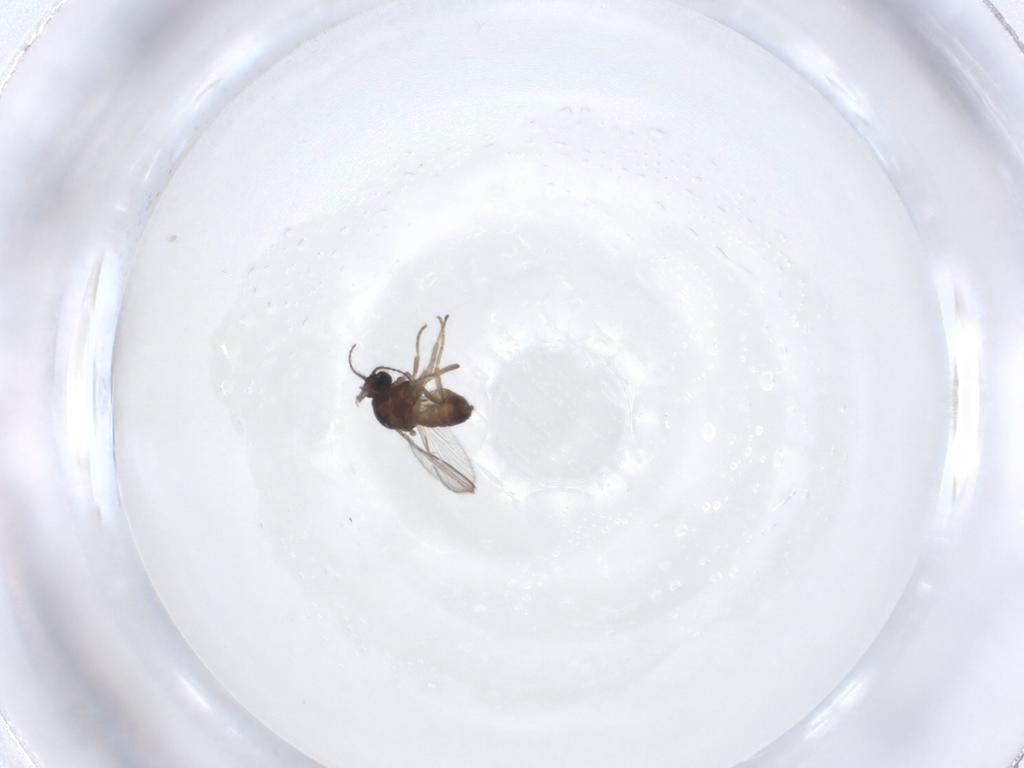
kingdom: Animalia
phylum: Arthropoda
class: Insecta
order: Diptera
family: Ceratopogonidae
